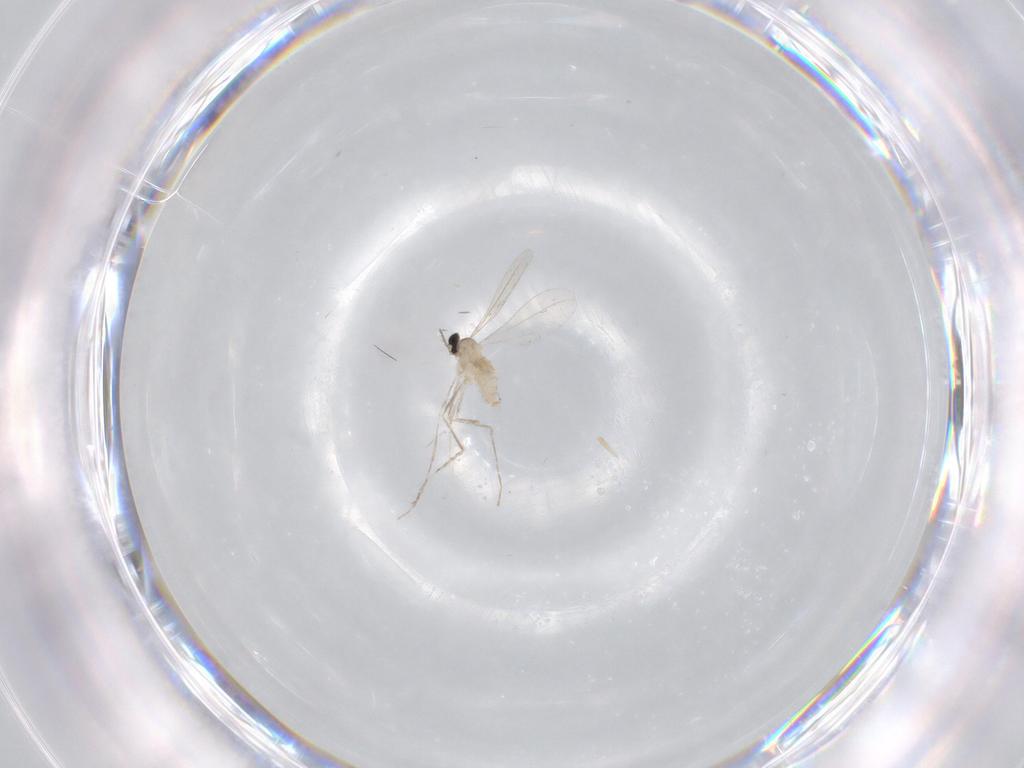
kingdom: Animalia
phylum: Arthropoda
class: Insecta
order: Diptera
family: Cecidomyiidae
